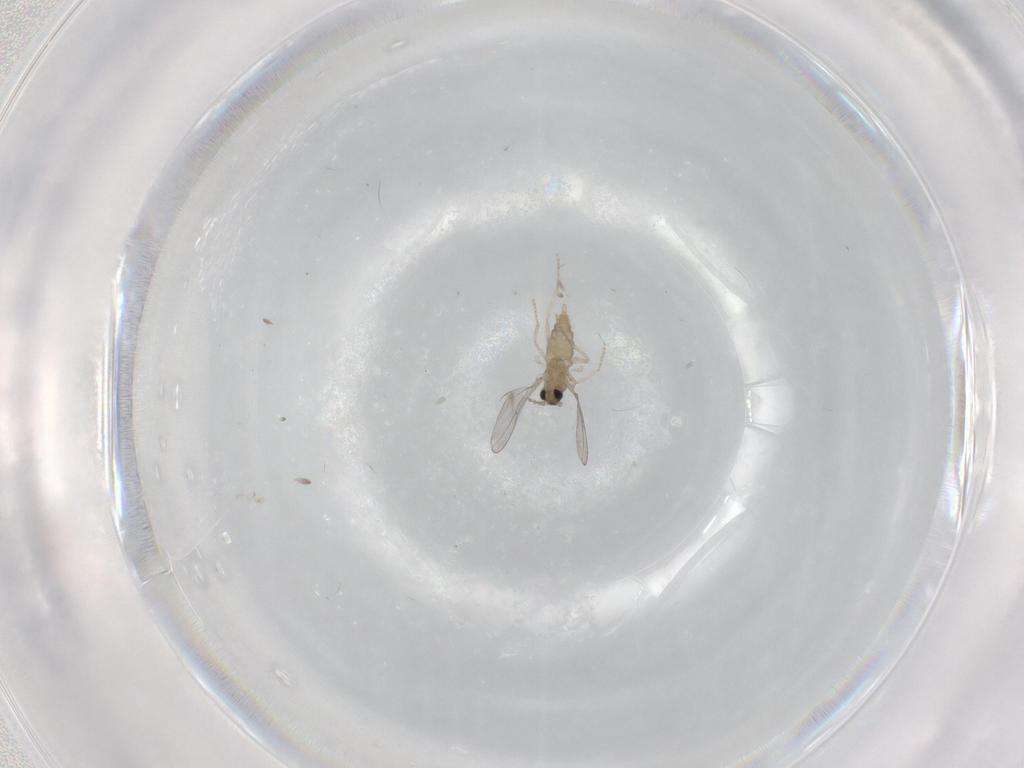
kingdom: Animalia
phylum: Arthropoda
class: Insecta
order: Diptera
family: Cecidomyiidae
